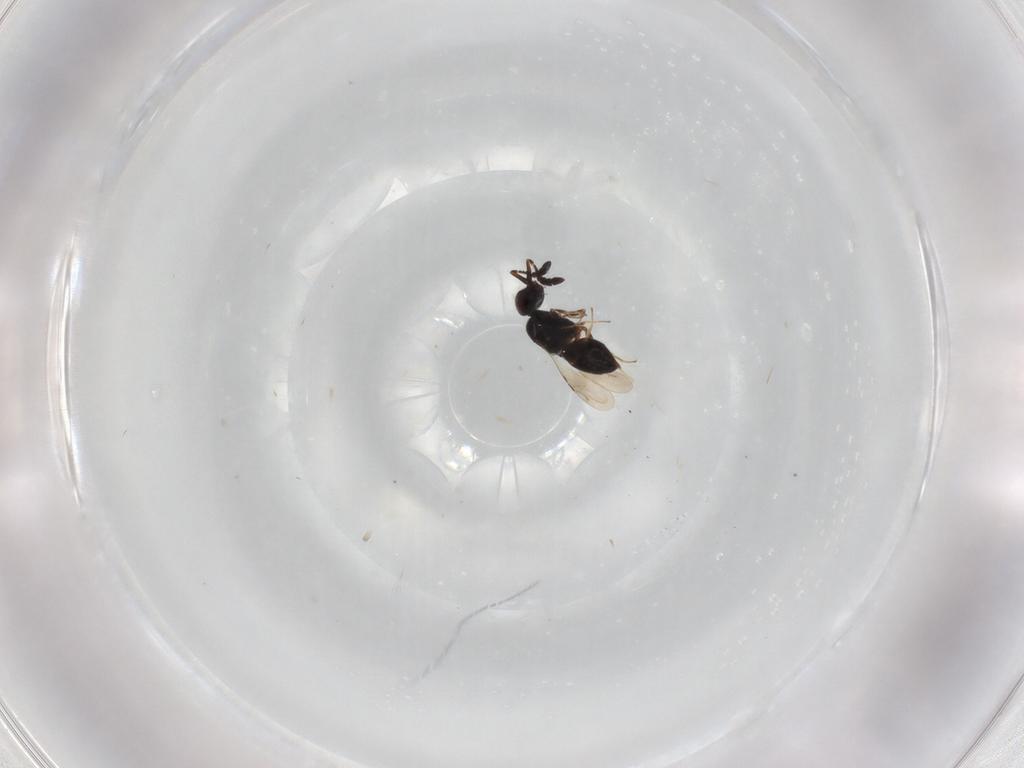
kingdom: Animalia
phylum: Arthropoda
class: Insecta
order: Hymenoptera
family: Ceraphronidae
